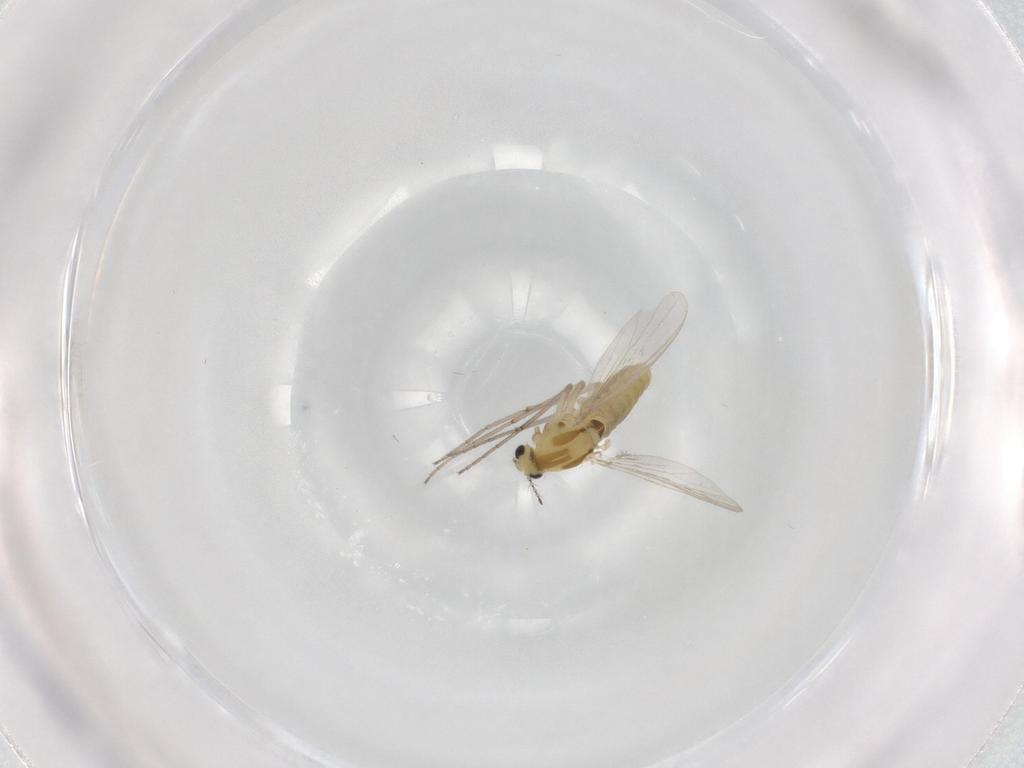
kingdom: Animalia
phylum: Arthropoda
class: Insecta
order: Diptera
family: Chironomidae
